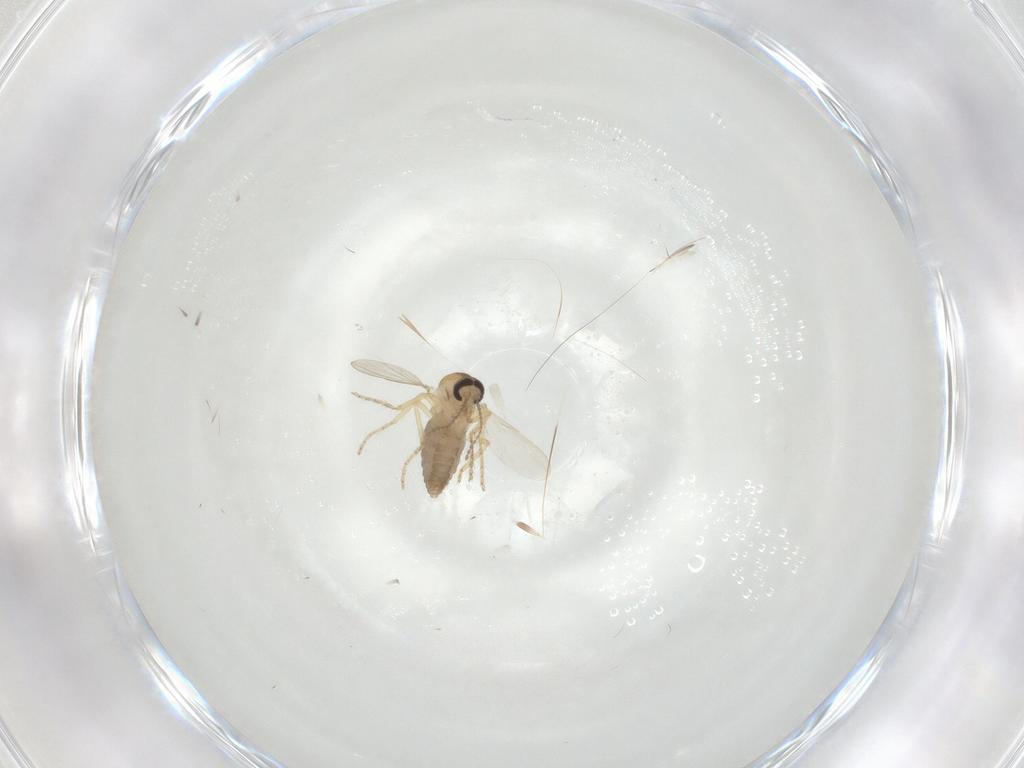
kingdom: Animalia
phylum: Arthropoda
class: Insecta
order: Diptera
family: Ceratopogonidae
